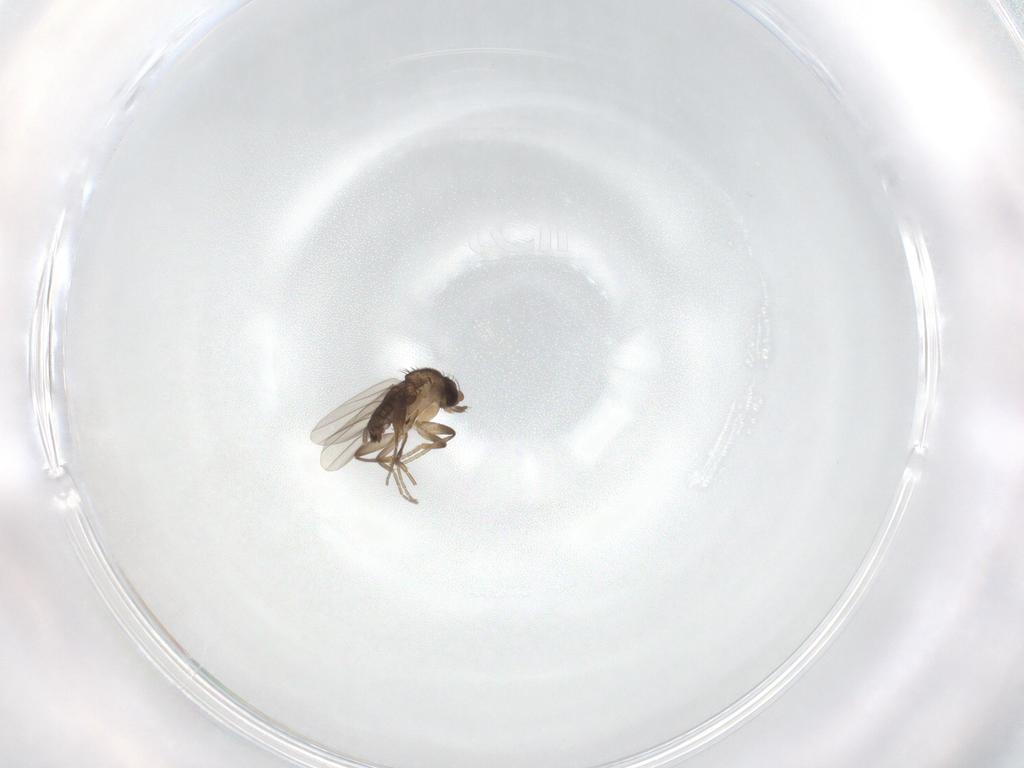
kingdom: Animalia
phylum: Arthropoda
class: Insecta
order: Diptera
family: Phoridae
